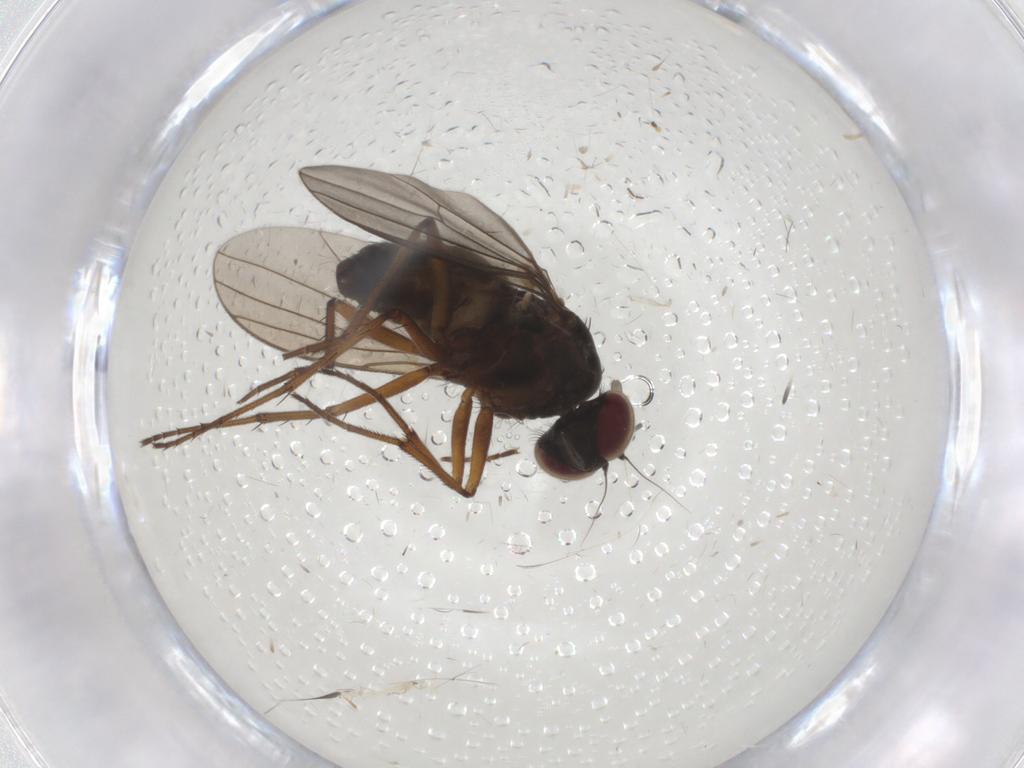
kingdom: Animalia
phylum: Arthropoda
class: Insecta
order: Diptera
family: Dolichopodidae
